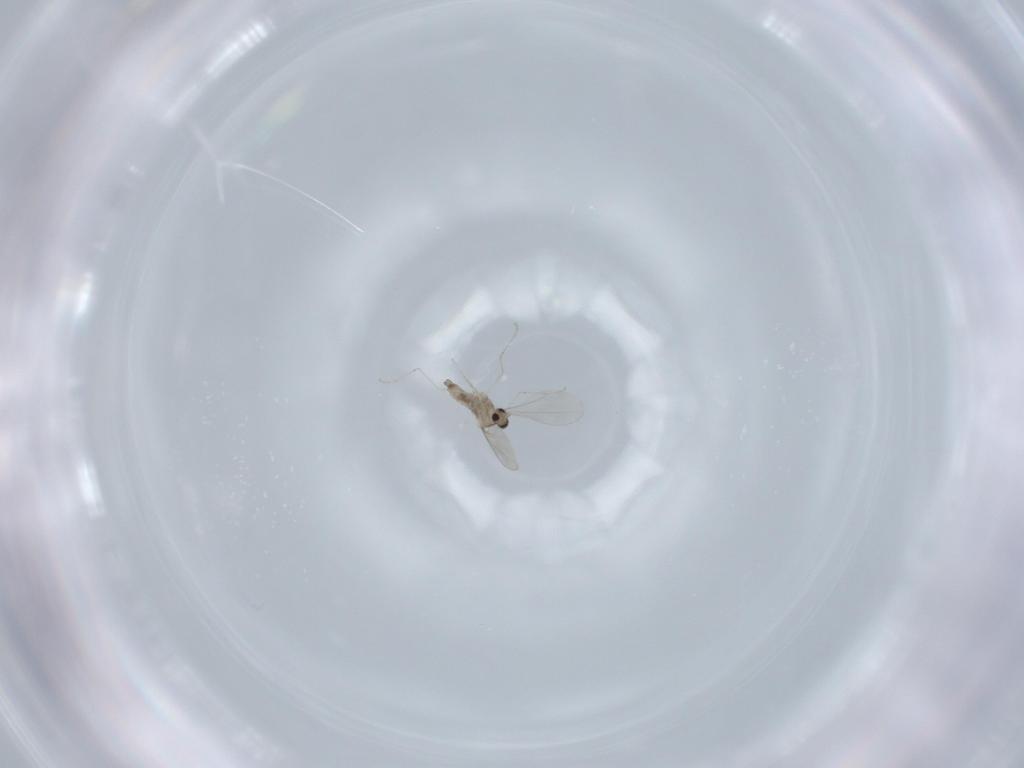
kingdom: Animalia
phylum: Arthropoda
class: Insecta
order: Diptera
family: Cecidomyiidae
